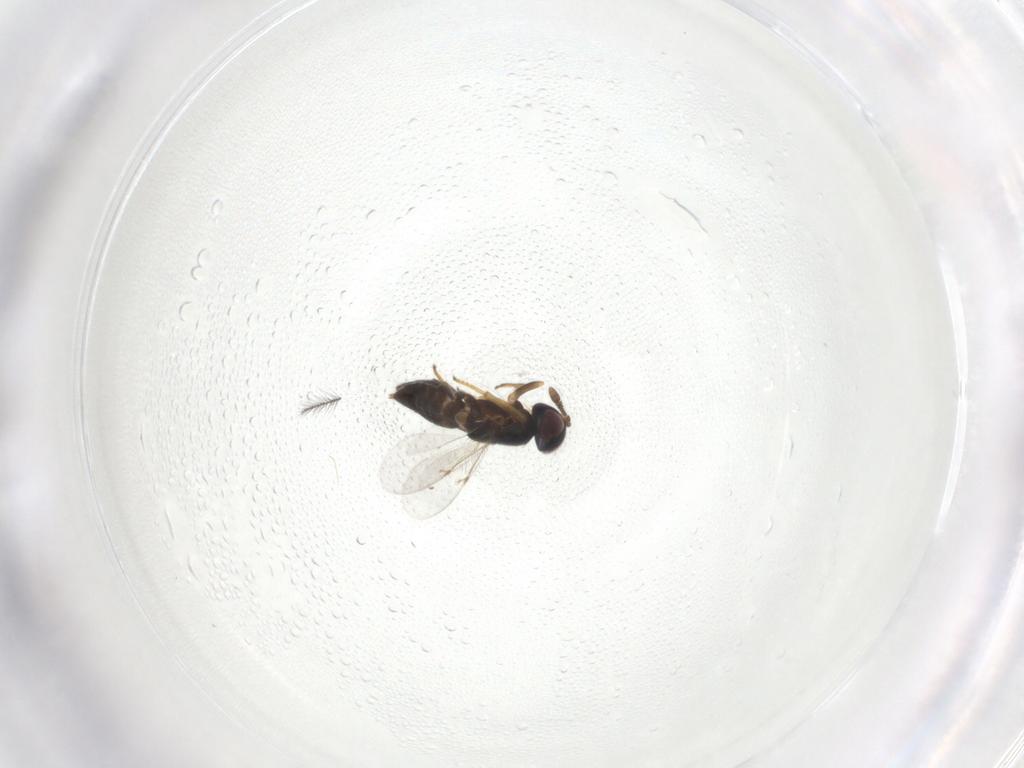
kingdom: Animalia
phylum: Arthropoda
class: Insecta
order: Hymenoptera
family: Encyrtidae
